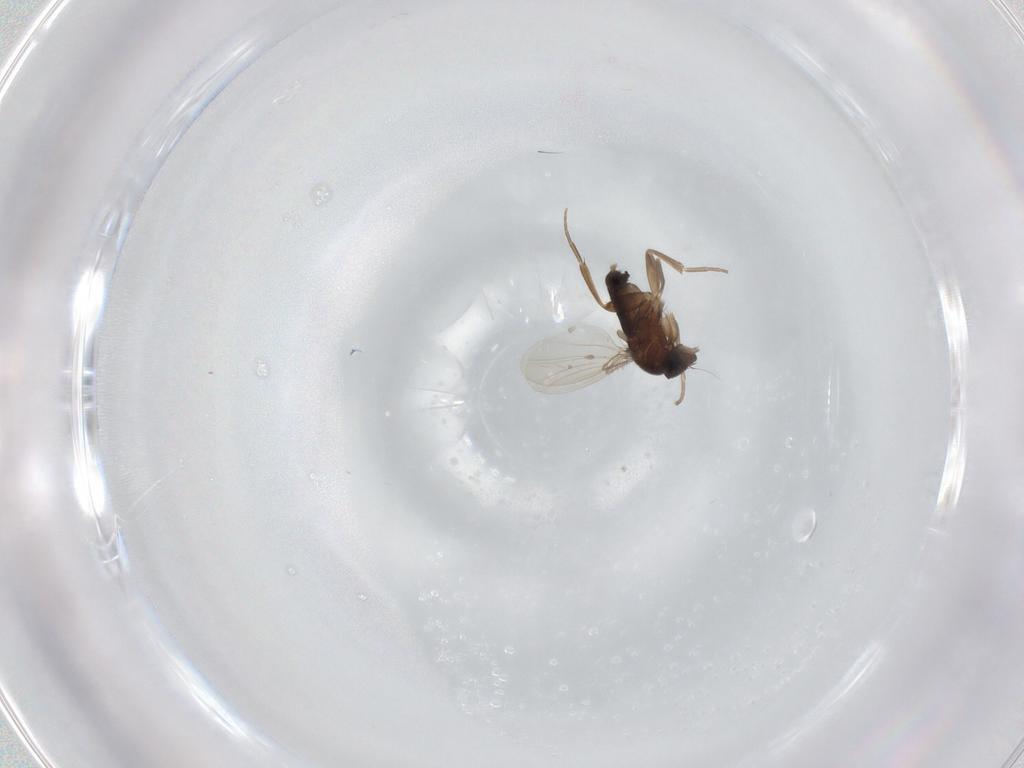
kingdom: Animalia
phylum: Arthropoda
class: Insecta
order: Diptera
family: Phoridae
